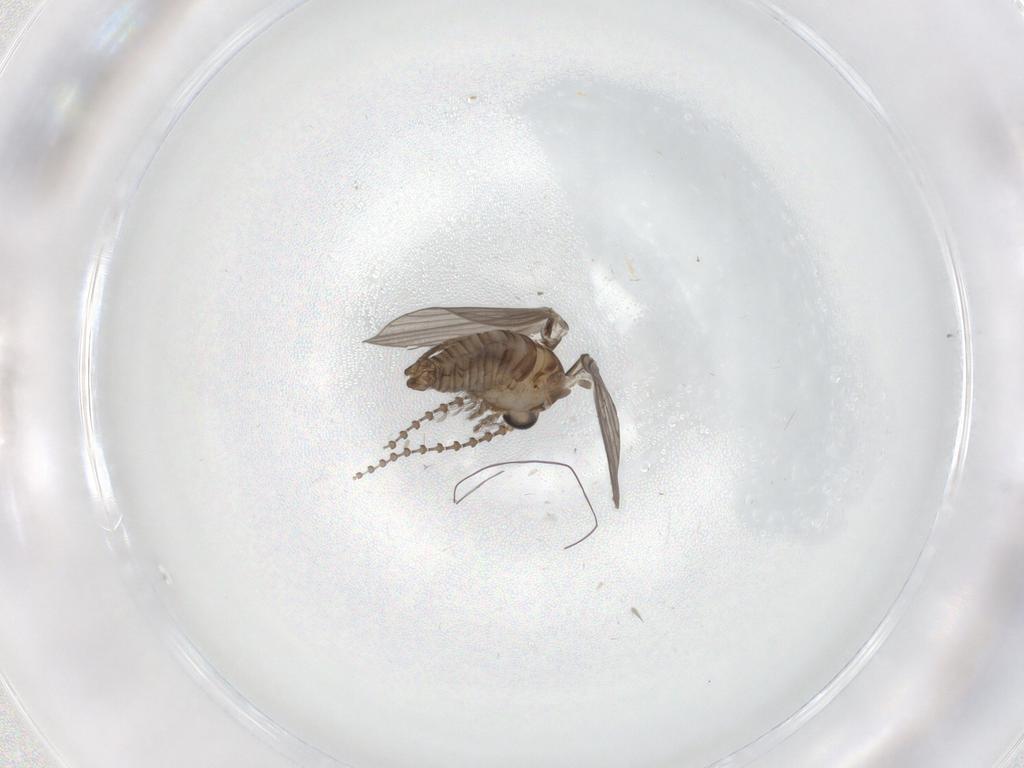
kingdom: Animalia
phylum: Arthropoda
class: Insecta
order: Diptera
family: Psychodidae
